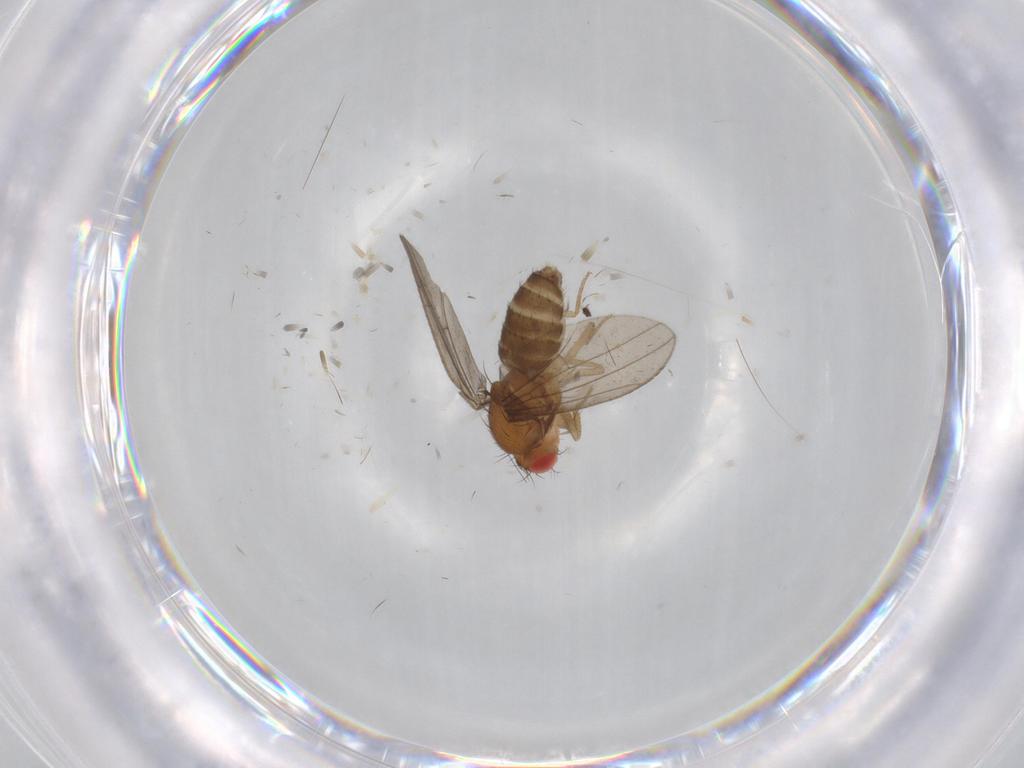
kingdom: Animalia
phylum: Arthropoda
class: Insecta
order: Diptera
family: Drosophilidae
